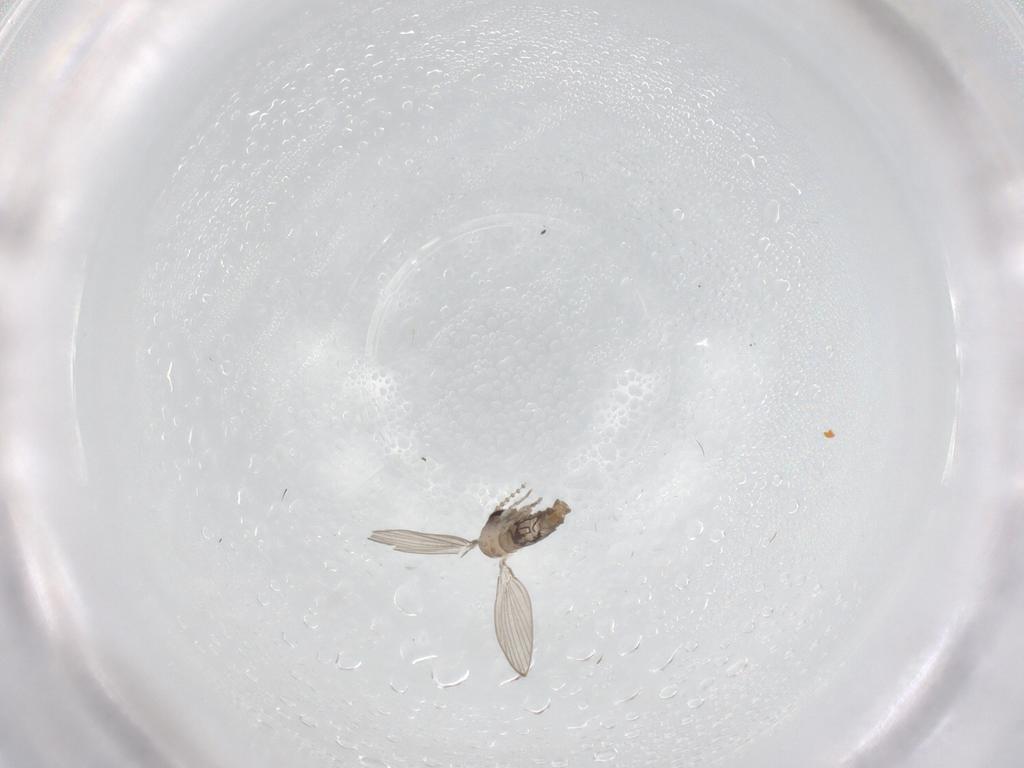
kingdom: Animalia
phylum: Arthropoda
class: Insecta
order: Diptera
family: Psychodidae
